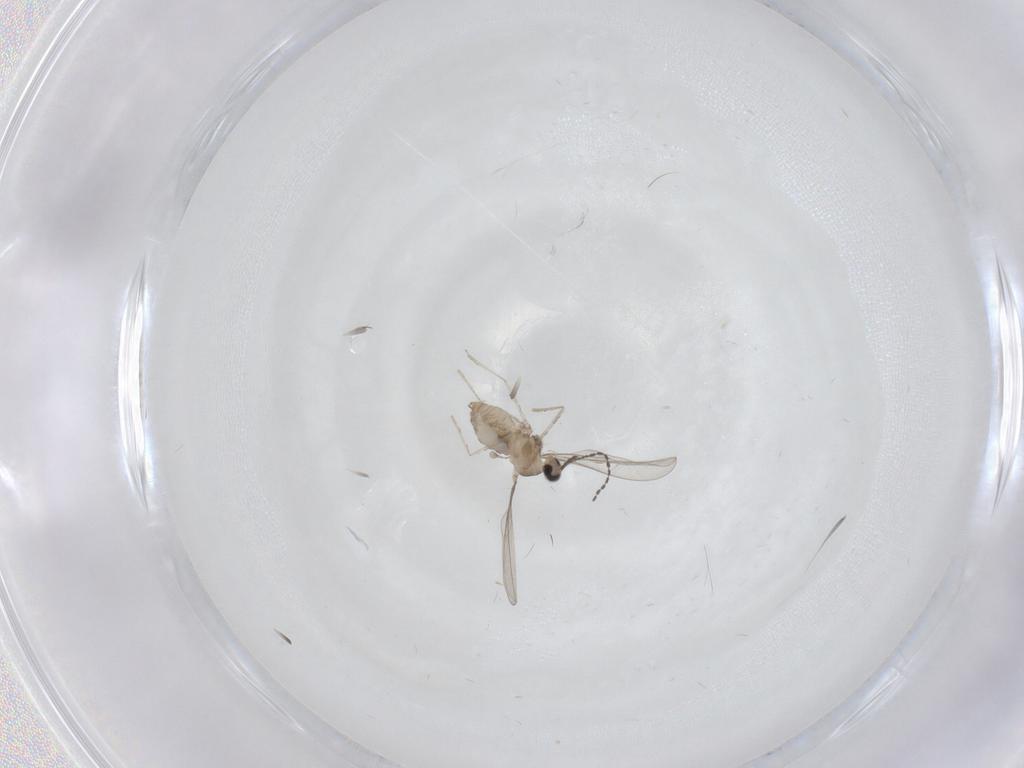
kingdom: Animalia
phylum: Arthropoda
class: Insecta
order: Diptera
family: Cecidomyiidae
